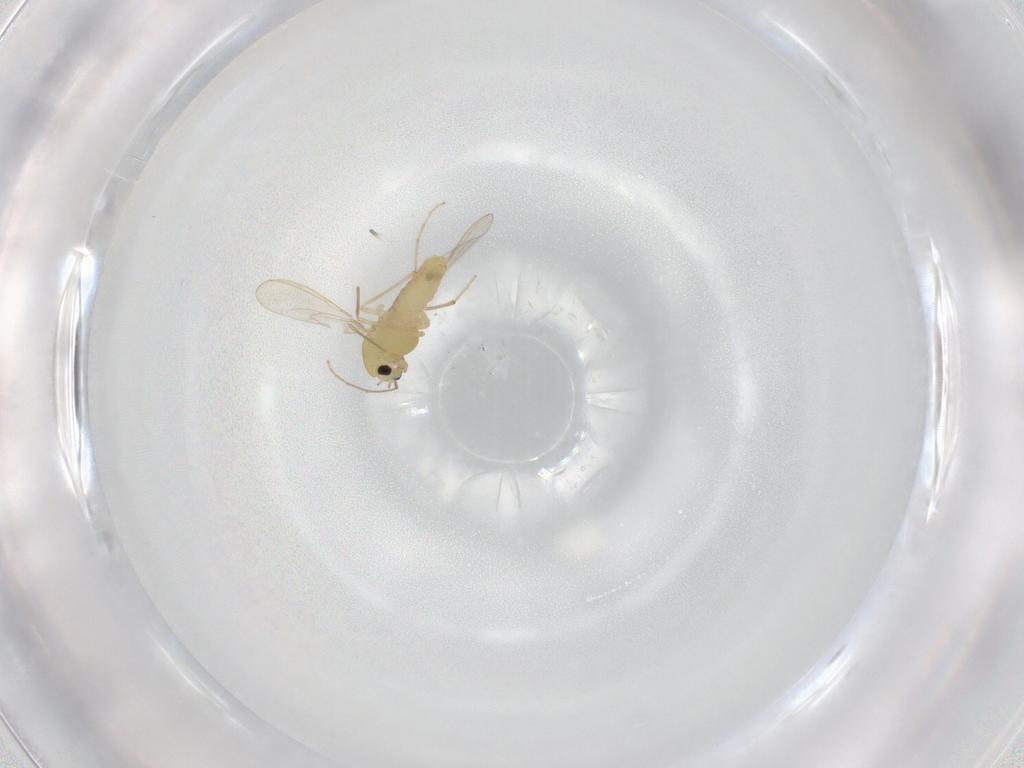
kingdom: Animalia
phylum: Arthropoda
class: Insecta
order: Diptera
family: Chironomidae
